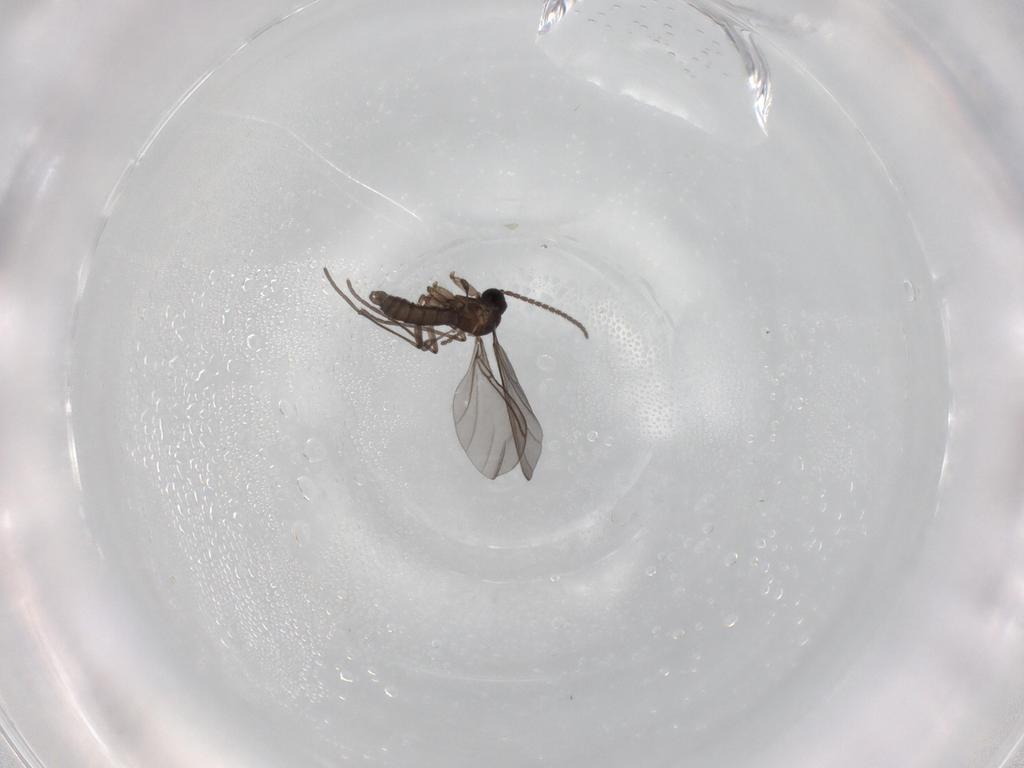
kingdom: Animalia
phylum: Arthropoda
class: Insecta
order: Diptera
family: Sciaridae
